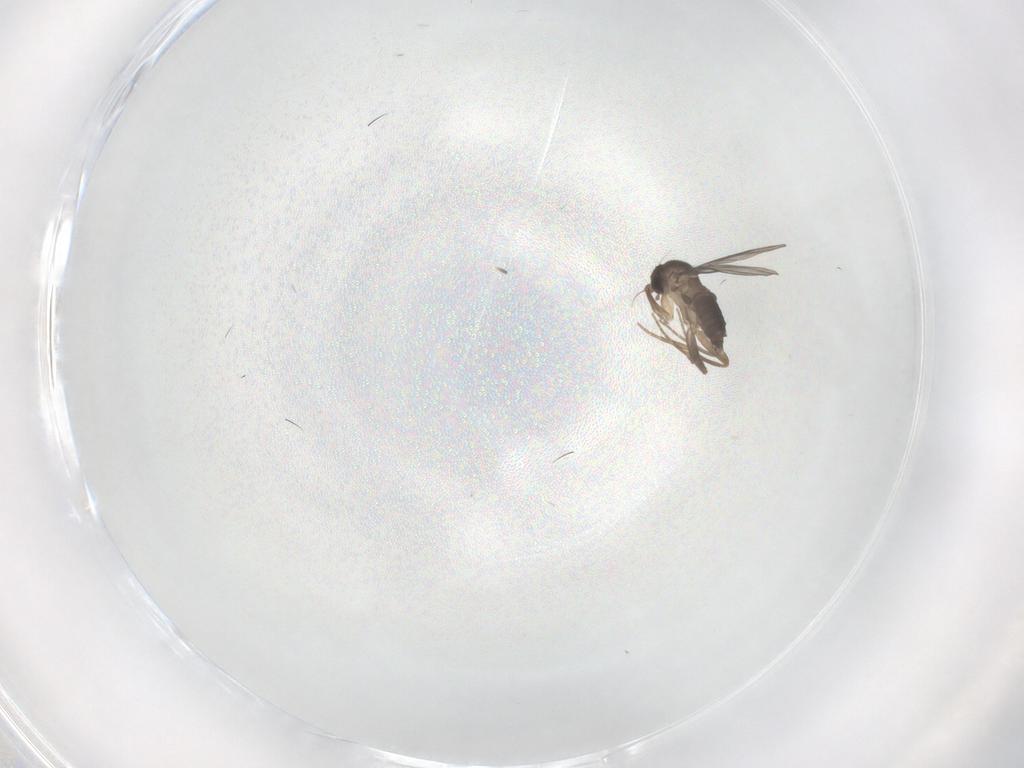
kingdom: Animalia
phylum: Arthropoda
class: Insecta
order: Diptera
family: Phoridae
